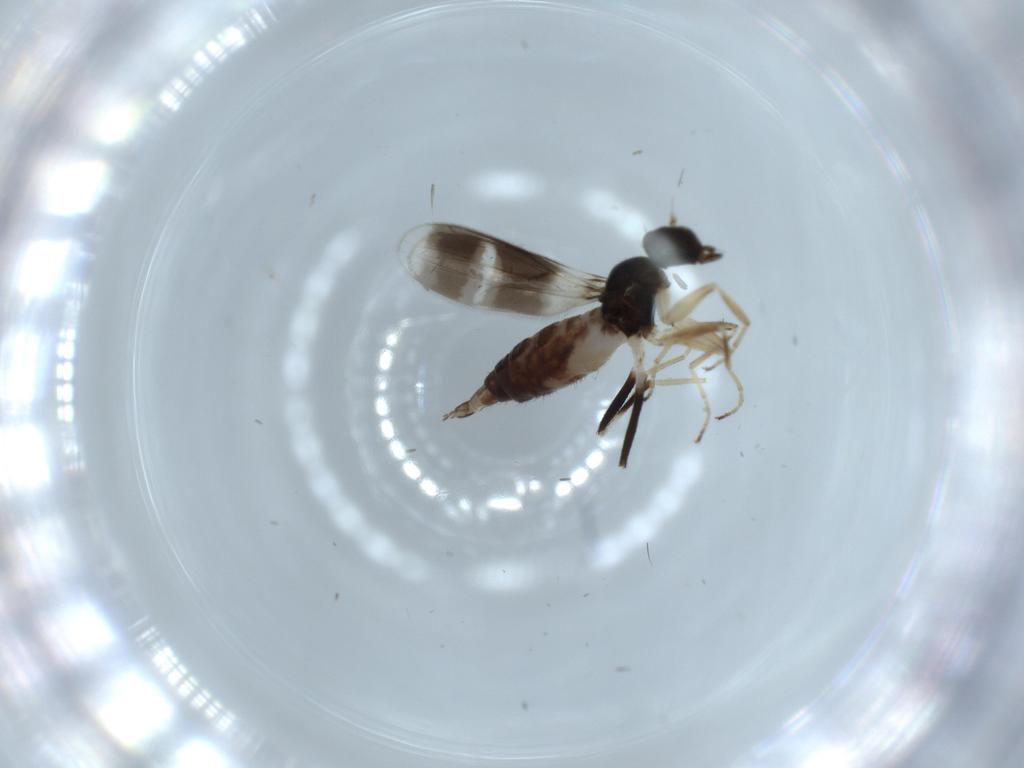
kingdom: Animalia
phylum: Arthropoda
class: Insecta
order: Diptera
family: Hybotidae
